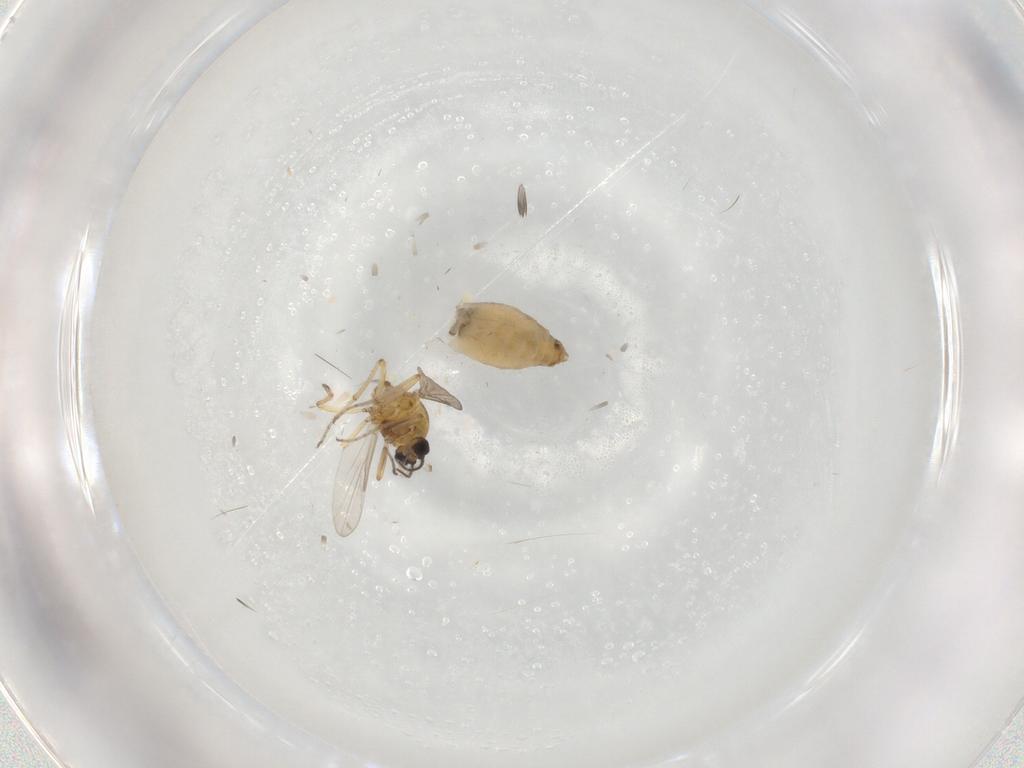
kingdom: Animalia
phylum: Arthropoda
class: Insecta
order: Diptera
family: Ceratopogonidae
